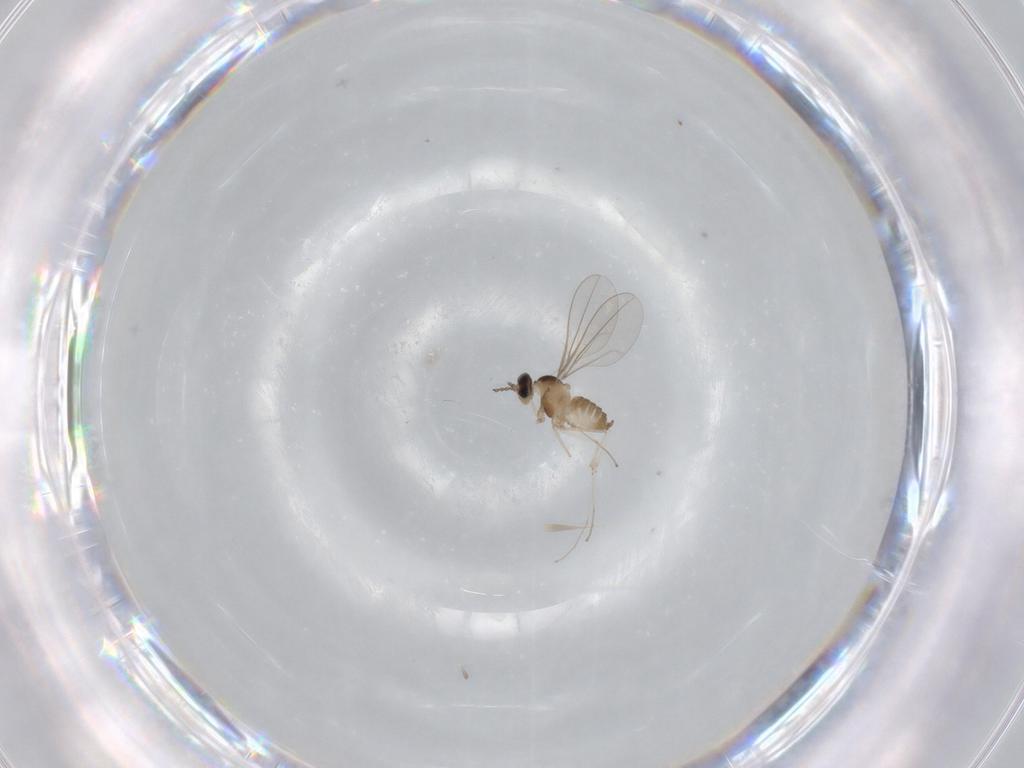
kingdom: Animalia
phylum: Arthropoda
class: Insecta
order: Diptera
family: Cecidomyiidae
